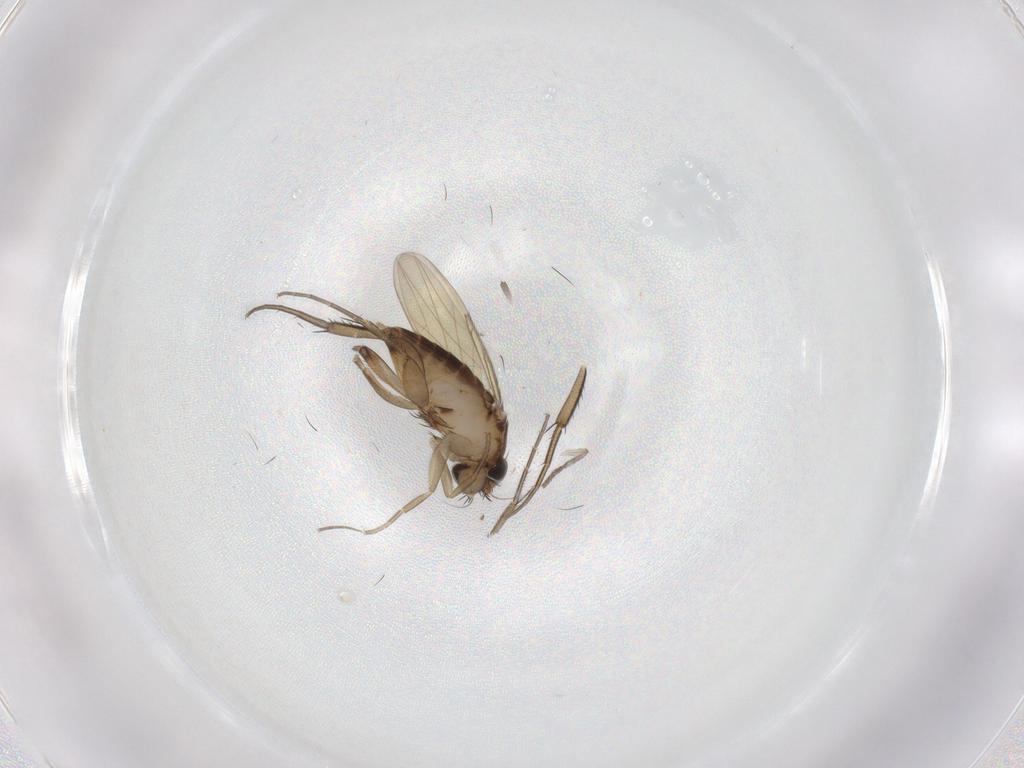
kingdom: Animalia
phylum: Arthropoda
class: Insecta
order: Diptera
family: Phoridae
